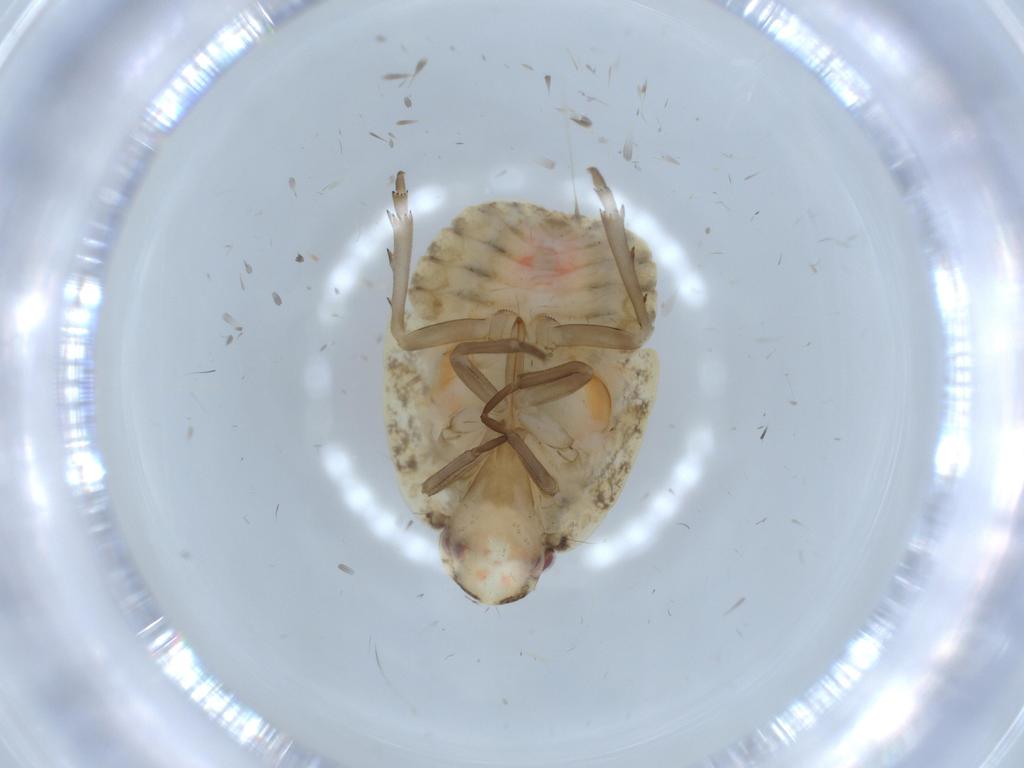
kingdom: Animalia
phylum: Arthropoda
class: Insecta
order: Hemiptera
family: Flatidae
